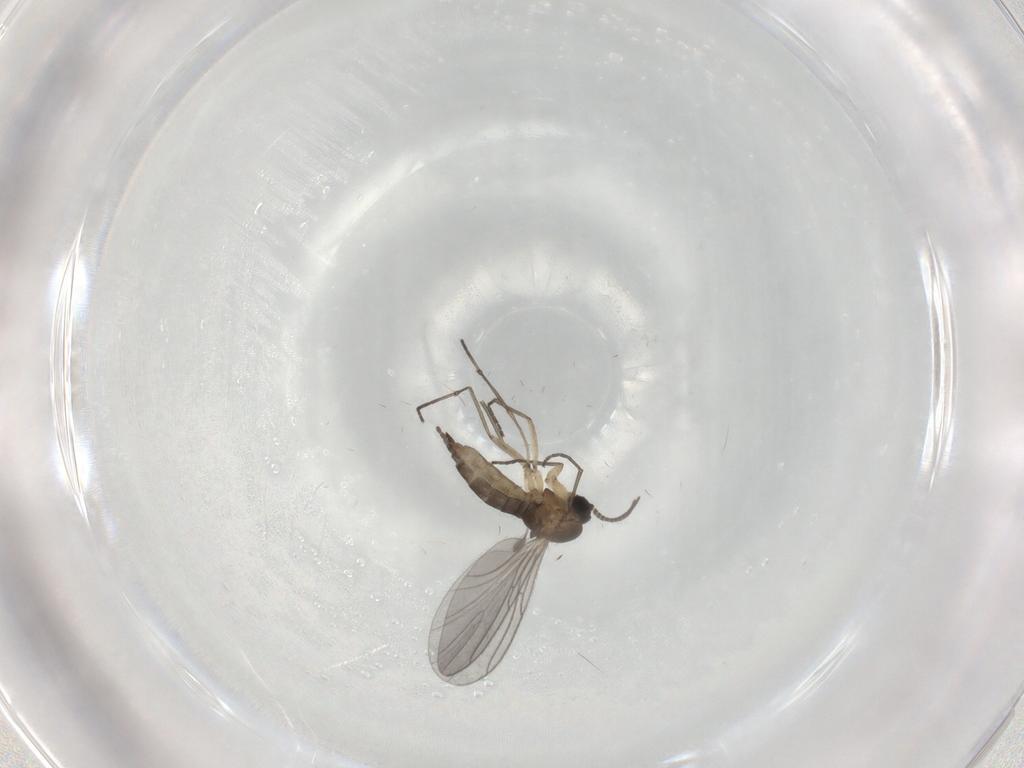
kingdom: Animalia
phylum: Arthropoda
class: Insecta
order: Diptera
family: Sciaridae
